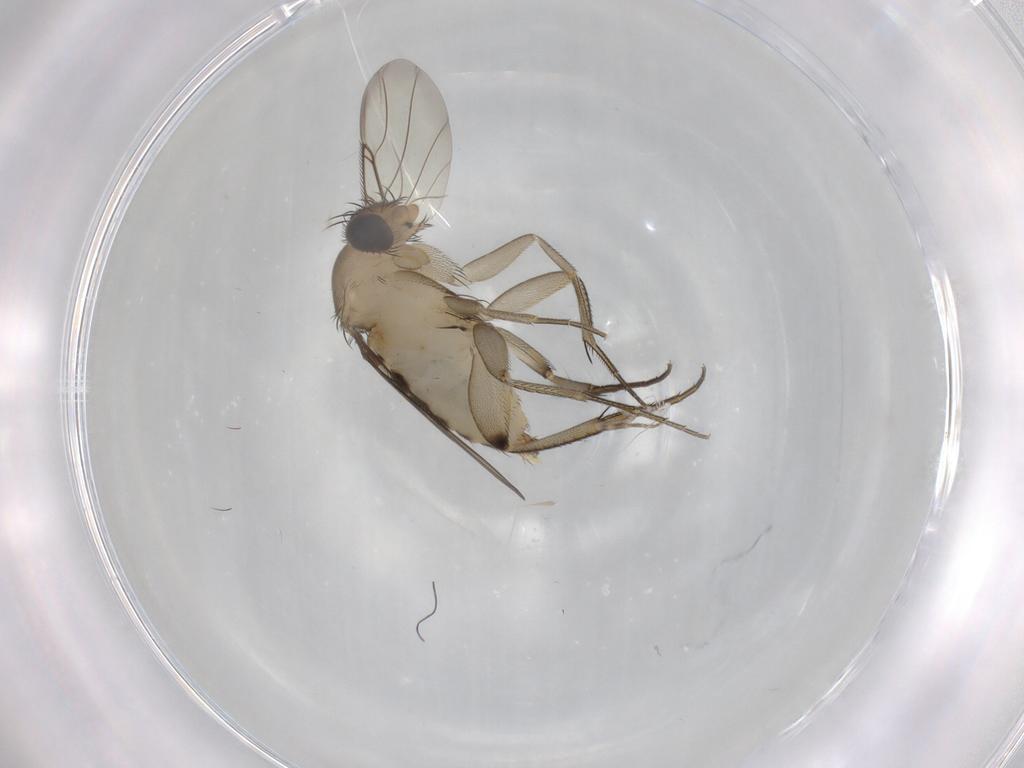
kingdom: Animalia
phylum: Arthropoda
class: Insecta
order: Diptera
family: Phoridae
